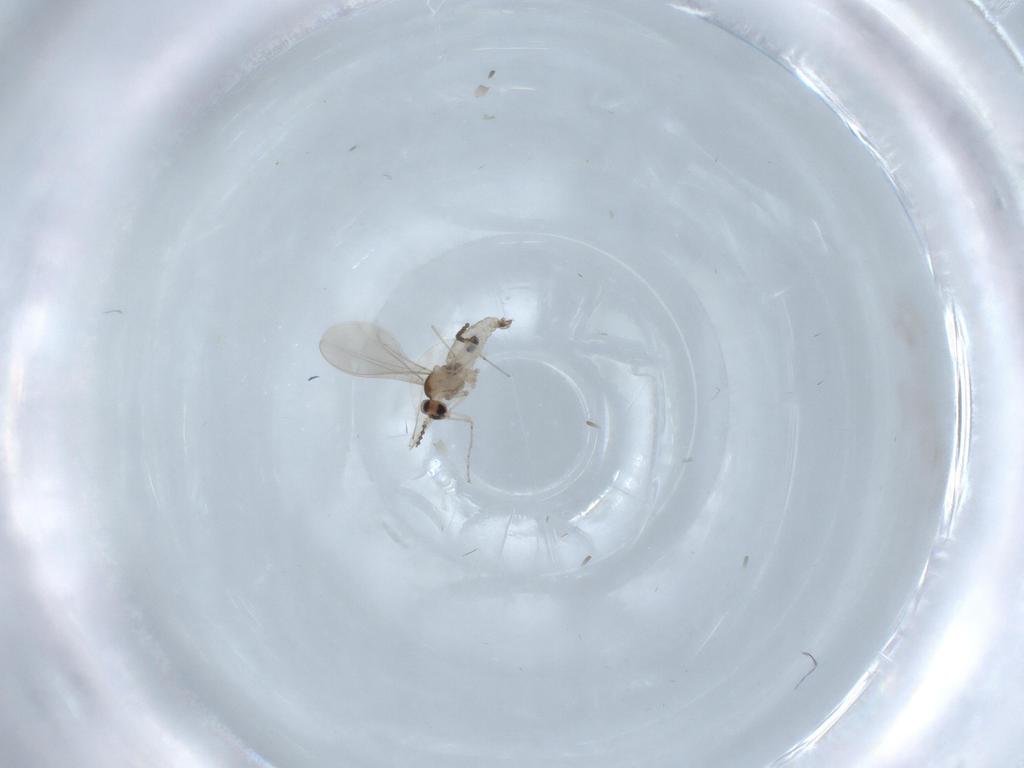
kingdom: Animalia
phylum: Arthropoda
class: Insecta
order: Diptera
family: Cecidomyiidae
